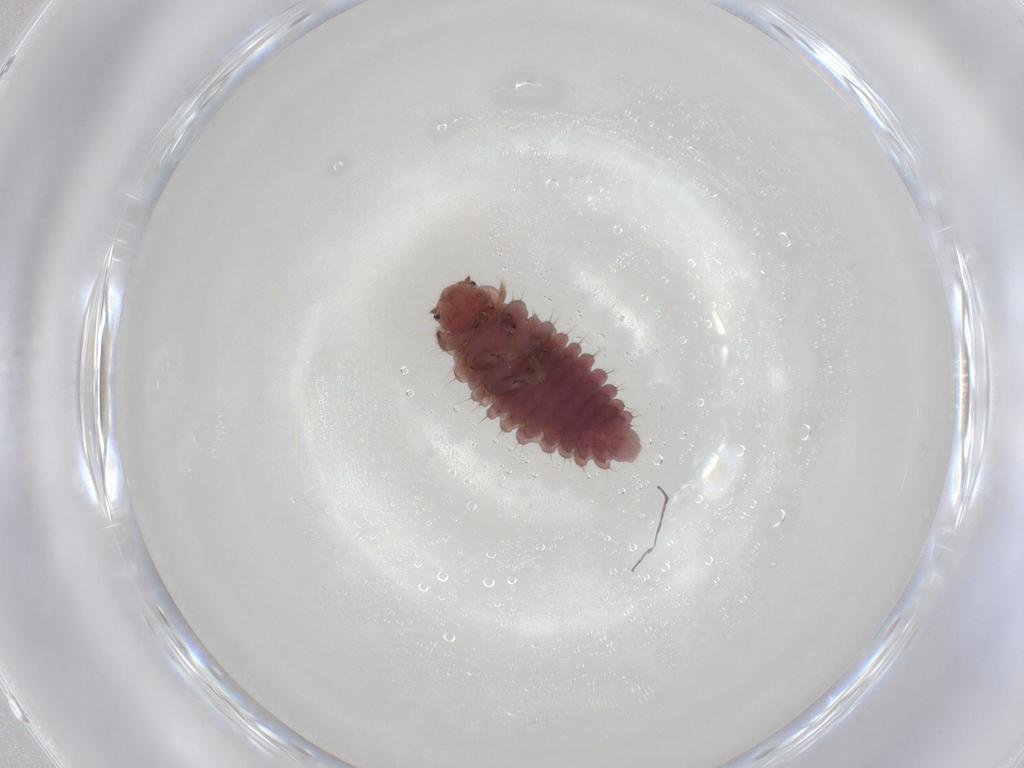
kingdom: Animalia
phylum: Arthropoda
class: Insecta
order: Coleoptera
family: Coccinellidae
